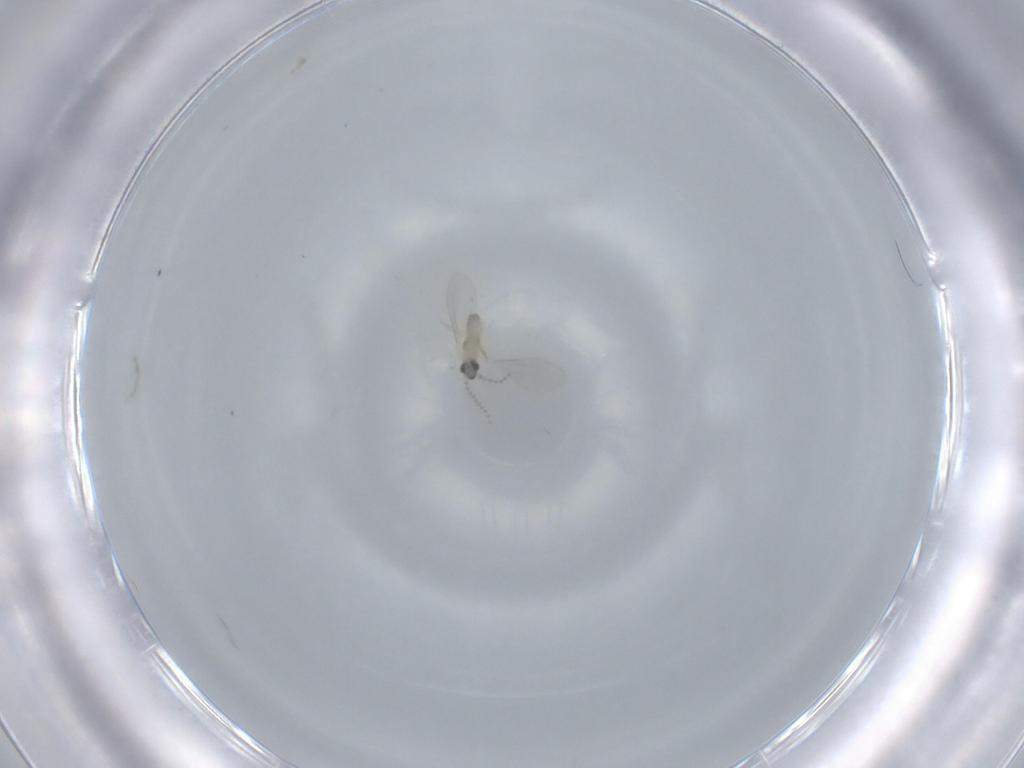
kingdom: Animalia
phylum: Arthropoda
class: Insecta
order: Diptera
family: Cecidomyiidae
